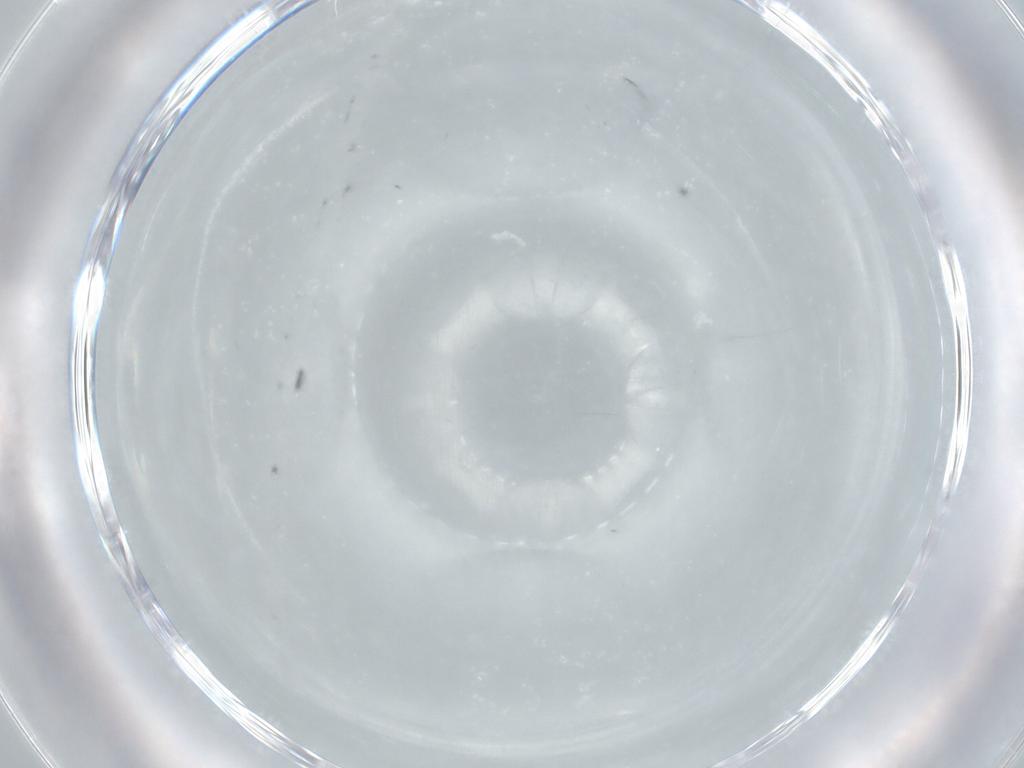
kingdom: Animalia
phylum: Arthropoda
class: Insecta
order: Diptera
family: Chironomidae
